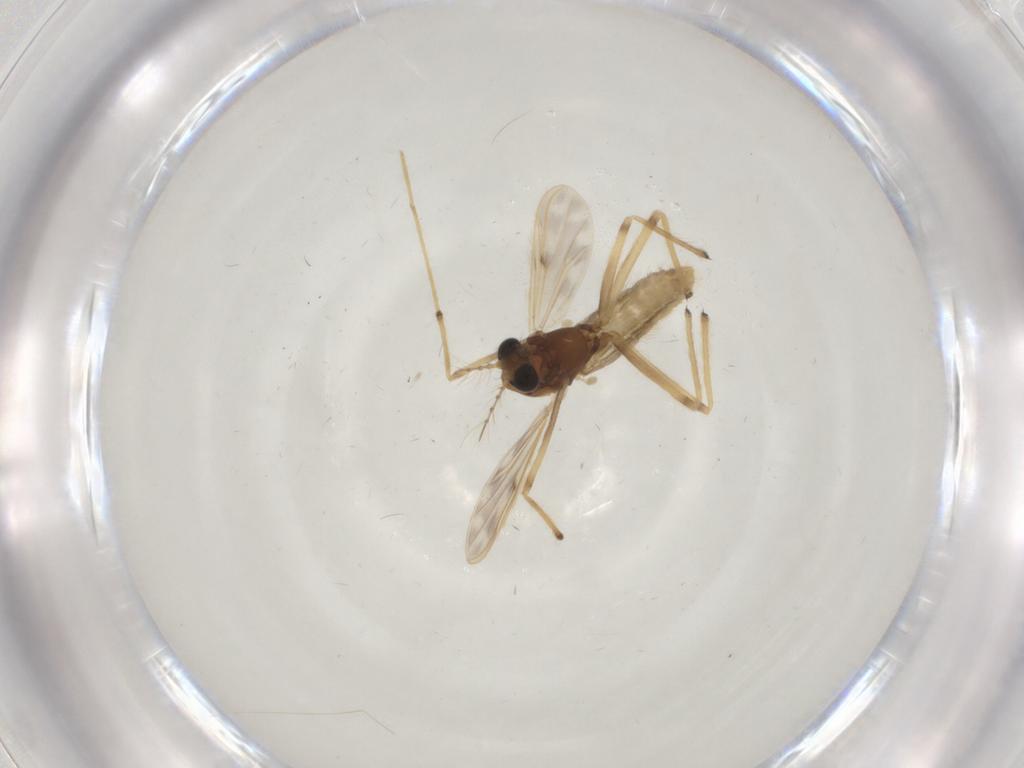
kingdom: Animalia
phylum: Arthropoda
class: Insecta
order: Diptera
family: Chironomidae
